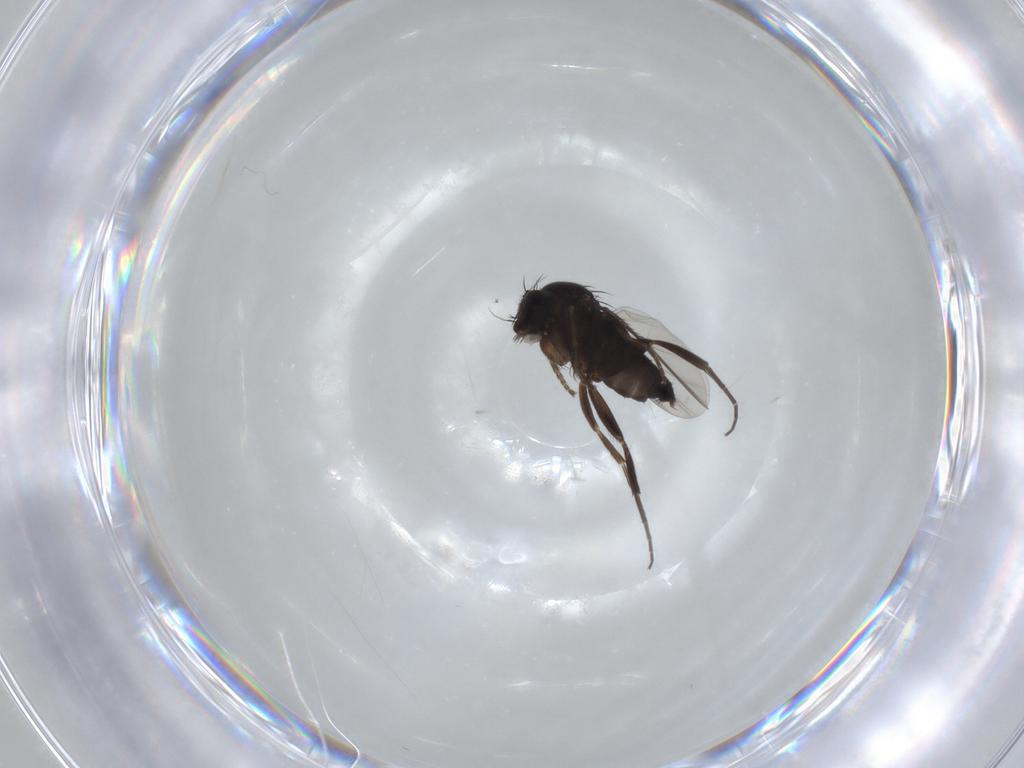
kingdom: Animalia
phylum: Arthropoda
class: Insecta
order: Diptera
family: Phoridae
